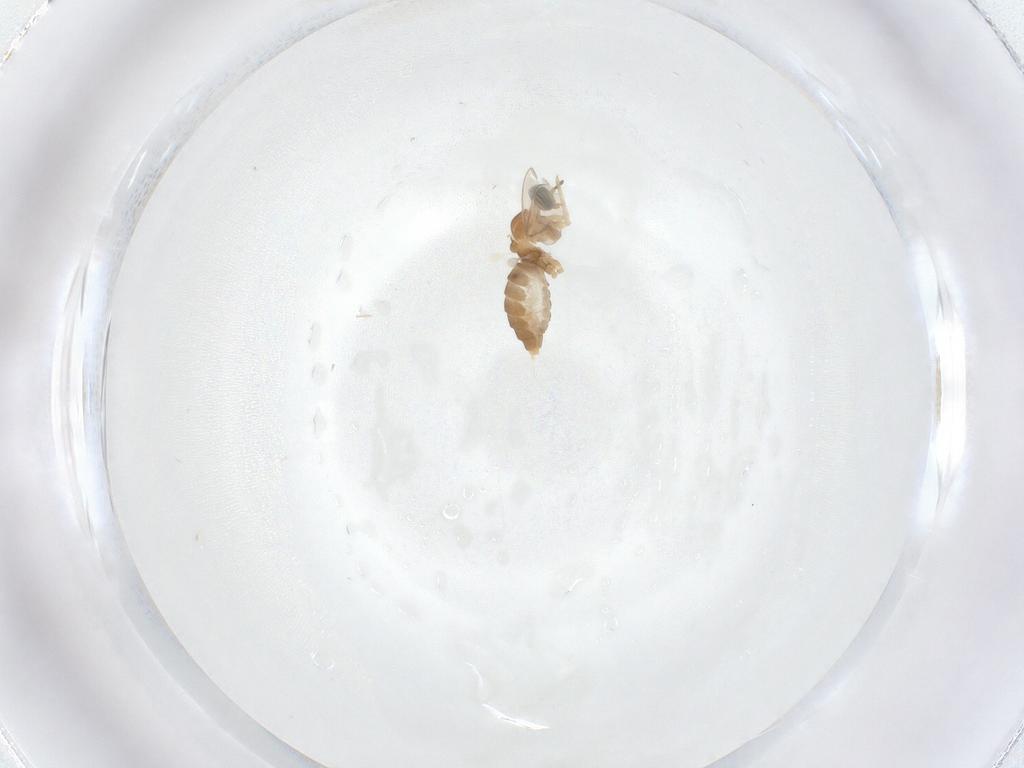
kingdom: Animalia
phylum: Arthropoda
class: Insecta
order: Diptera
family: Cecidomyiidae
